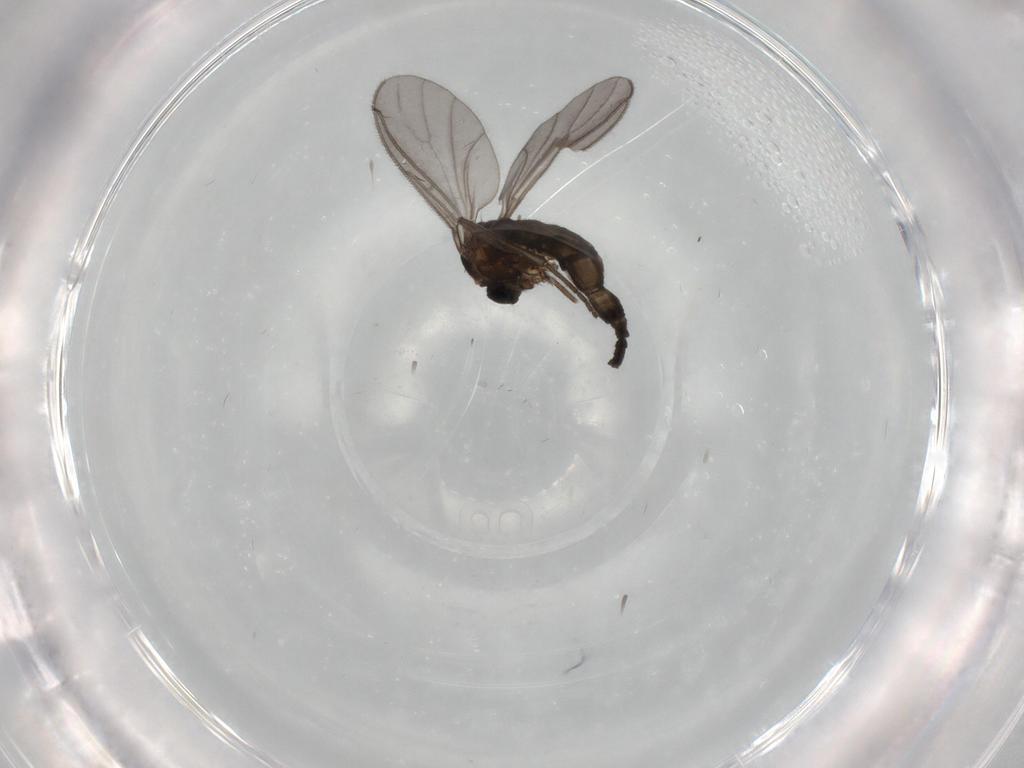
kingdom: Animalia
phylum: Arthropoda
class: Insecta
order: Diptera
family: Sciaridae
